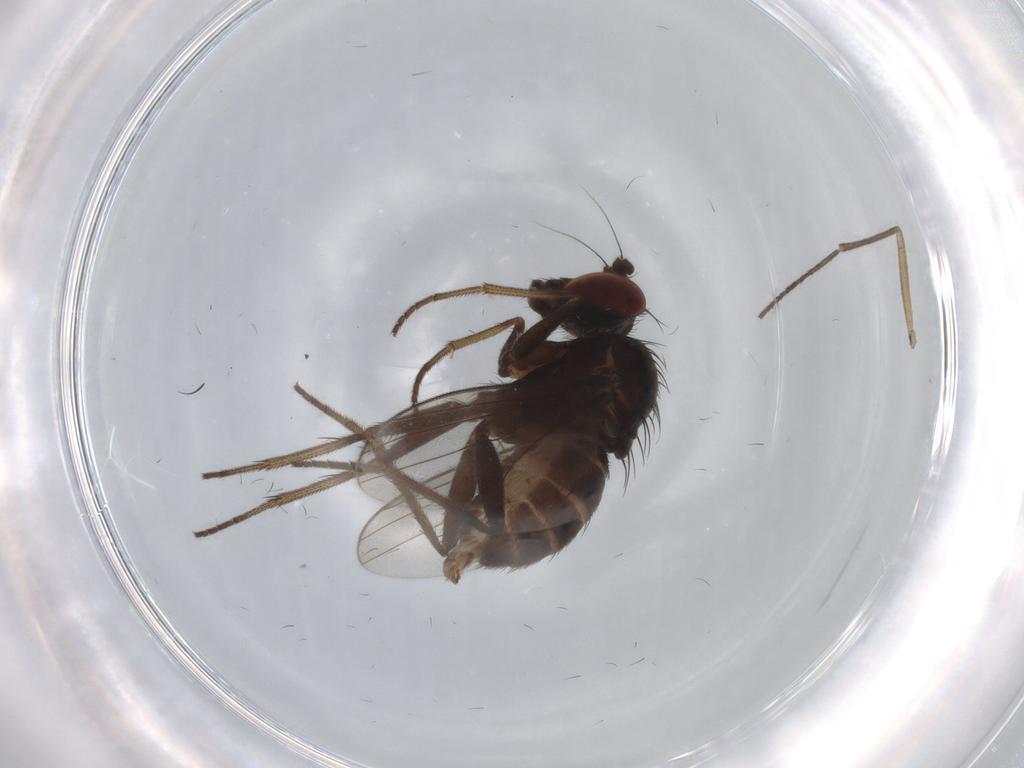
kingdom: Animalia
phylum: Arthropoda
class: Insecta
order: Diptera
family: Dolichopodidae
